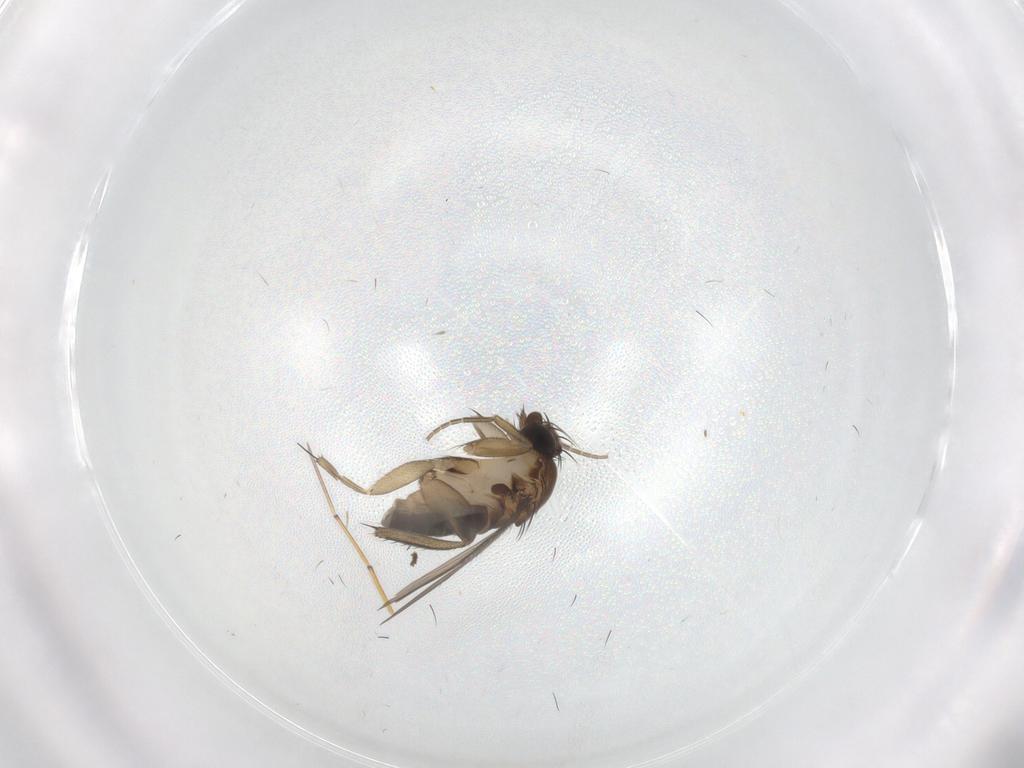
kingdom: Animalia
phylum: Arthropoda
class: Insecta
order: Diptera
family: Phoridae
